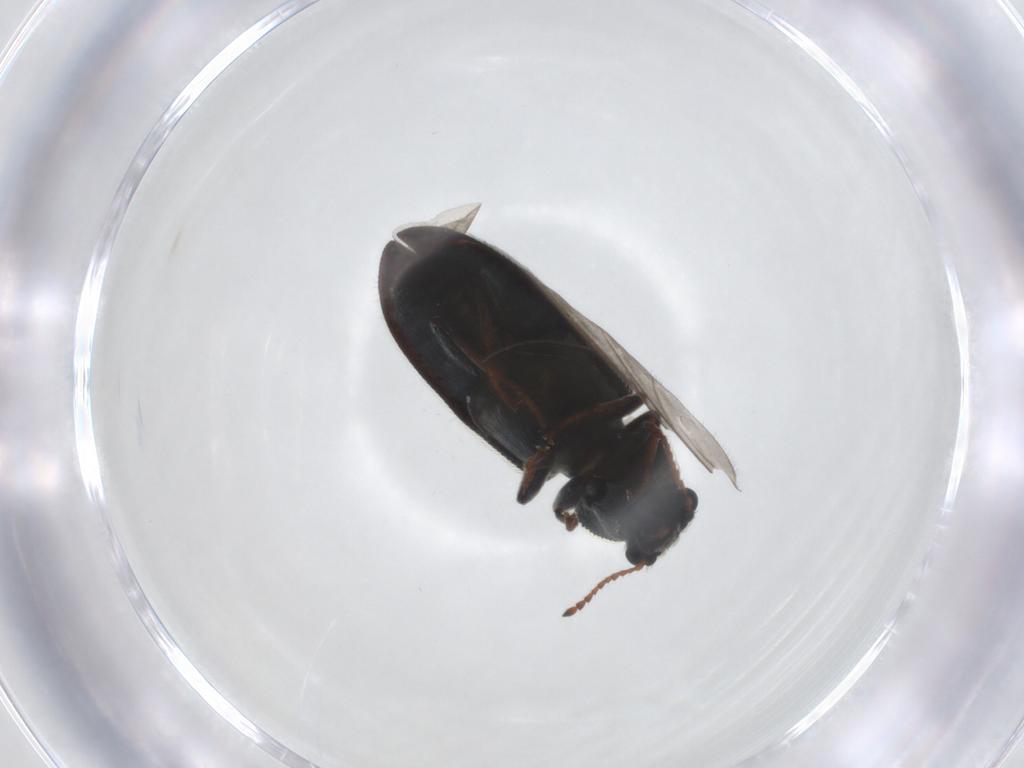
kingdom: Animalia
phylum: Arthropoda
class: Insecta
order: Coleoptera
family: Melyridae
